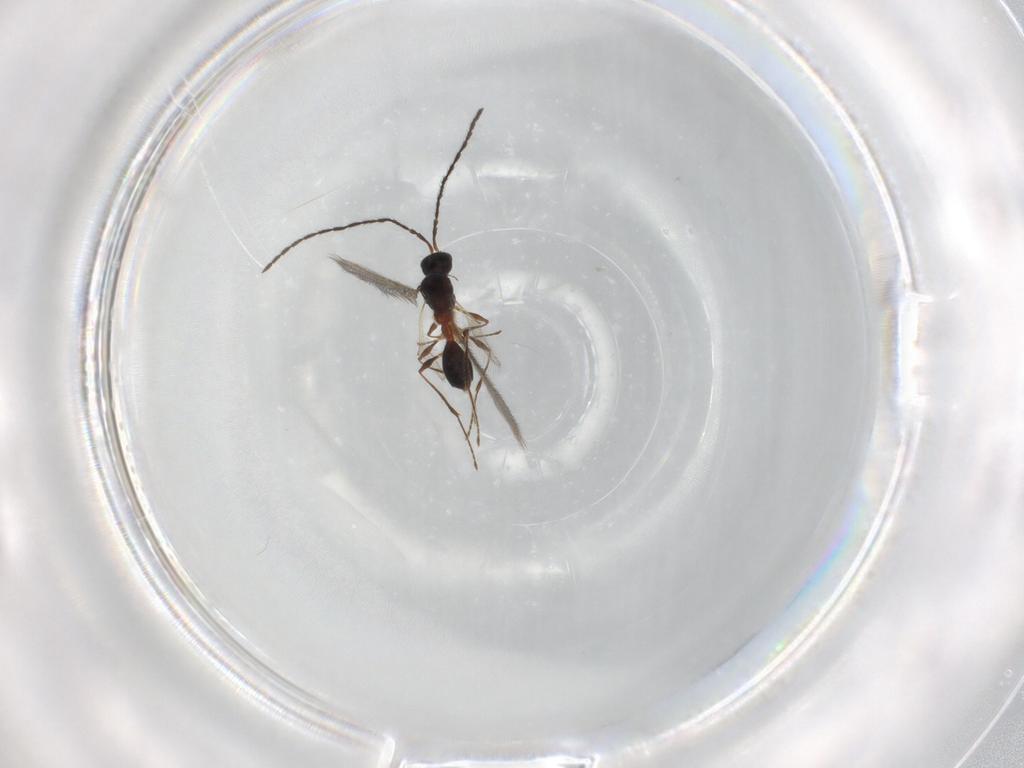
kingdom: Animalia
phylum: Arthropoda
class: Insecta
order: Hymenoptera
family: Diapriidae
